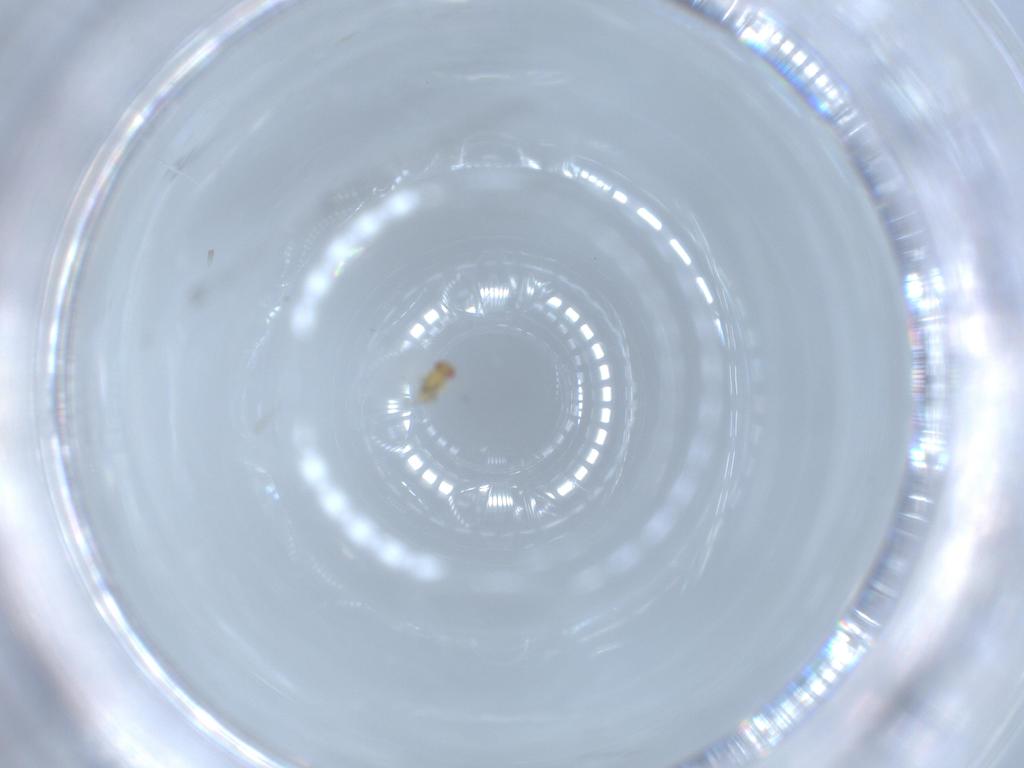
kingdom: Animalia
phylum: Arthropoda
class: Insecta
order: Hymenoptera
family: Trichogrammatidae
